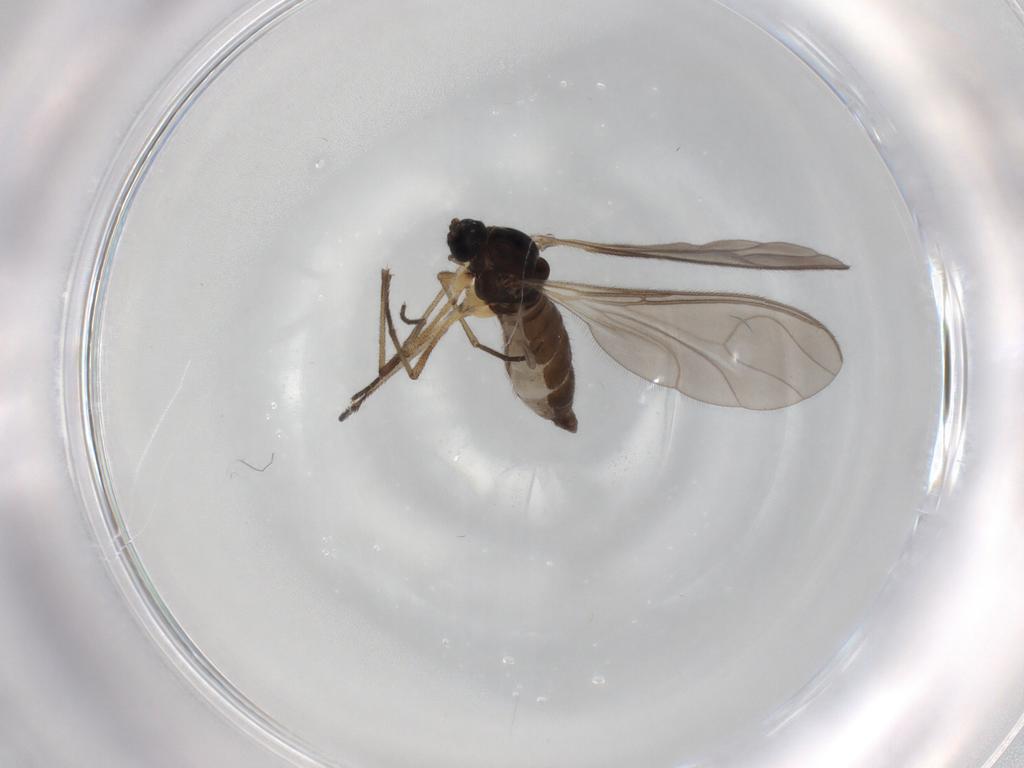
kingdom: Animalia
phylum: Arthropoda
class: Insecta
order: Diptera
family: Sciaridae
